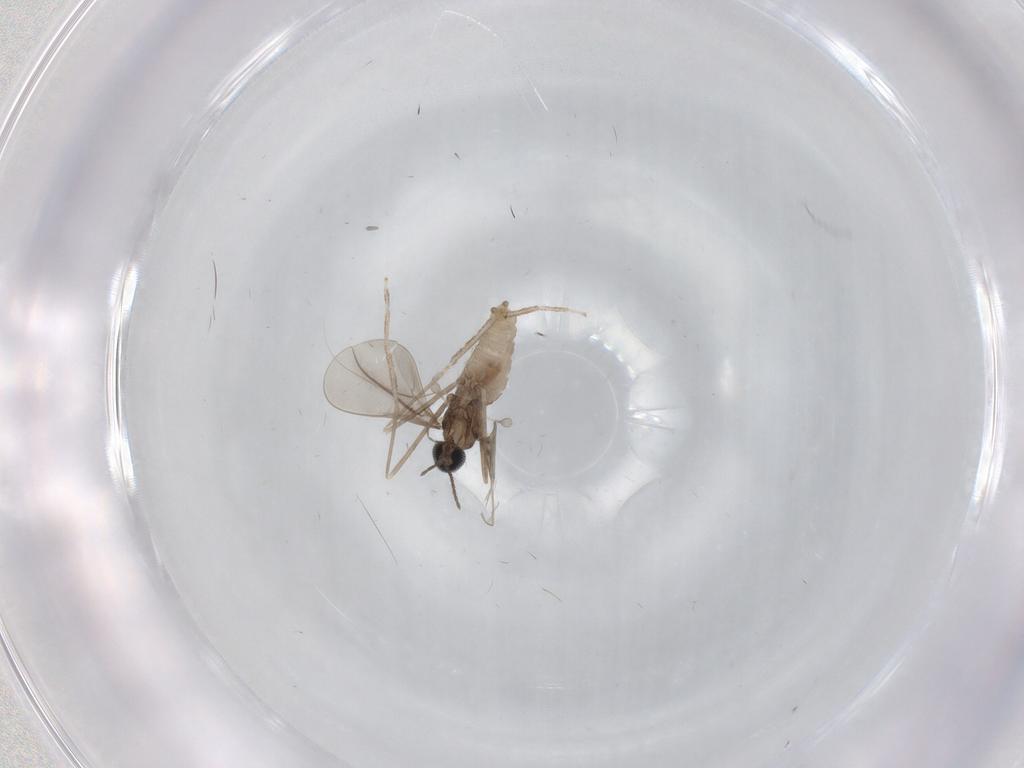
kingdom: Animalia
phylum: Arthropoda
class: Insecta
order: Diptera
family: Cecidomyiidae
